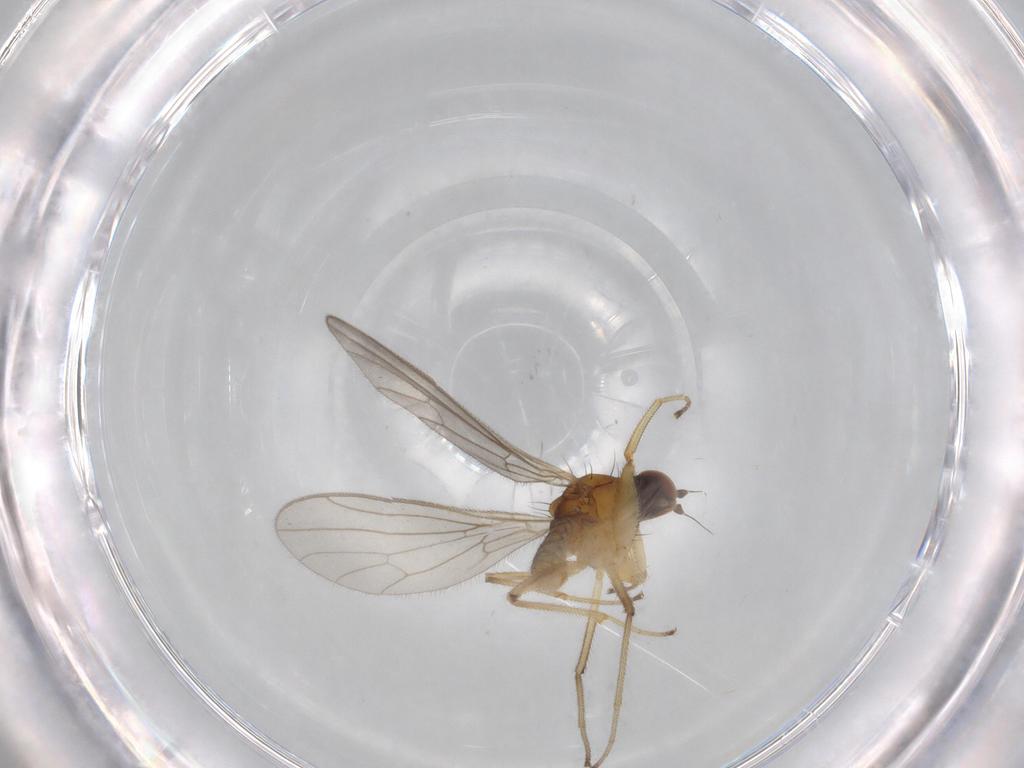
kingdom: Animalia
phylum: Arthropoda
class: Insecta
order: Diptera
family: Empididae
